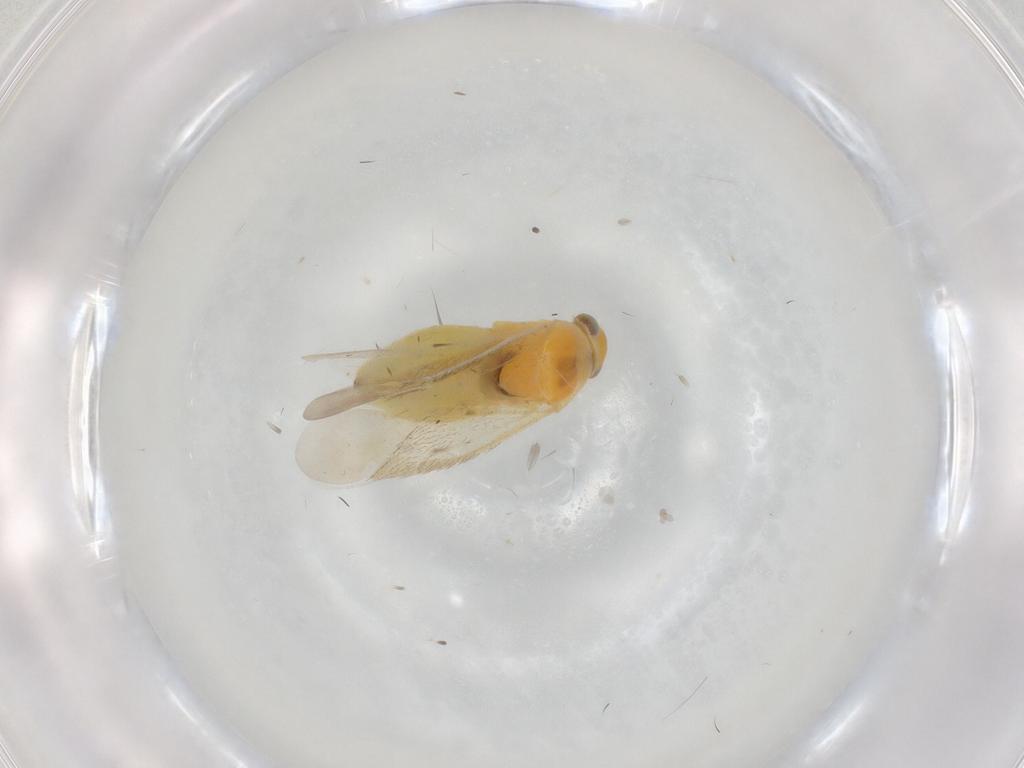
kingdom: Animalia
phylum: Arthropoda
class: Insecta
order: Hemiptera
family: Miridae
